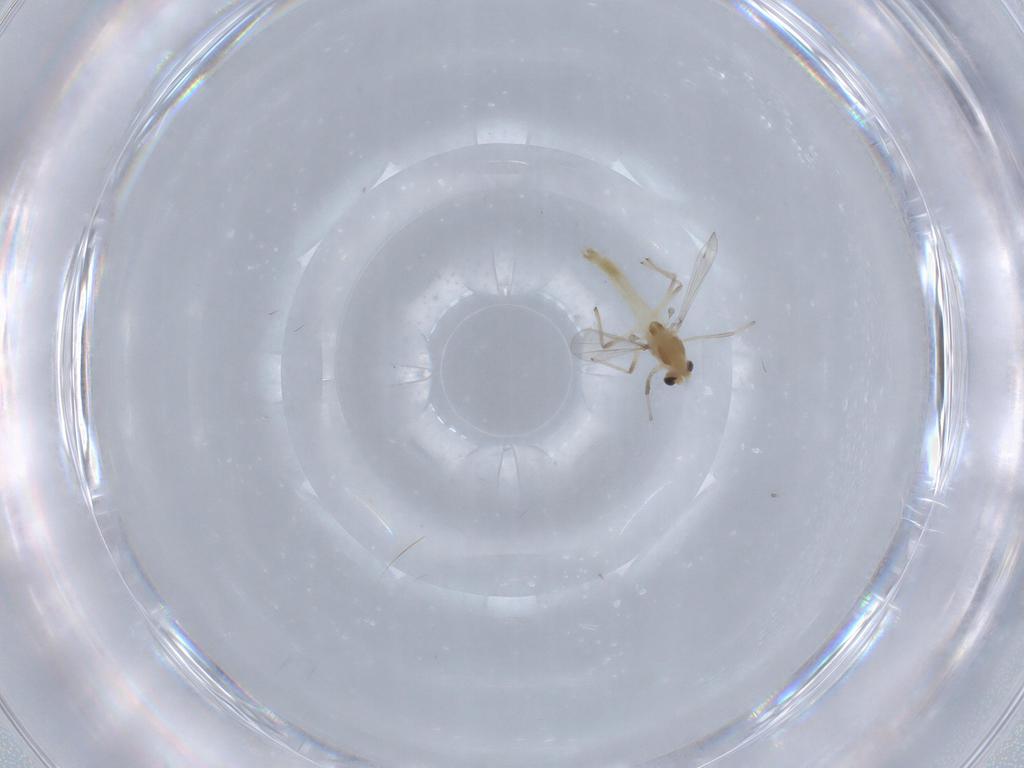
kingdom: Animalia
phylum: Arthropoda
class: Insecta
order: Diptera
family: Chironomidae
